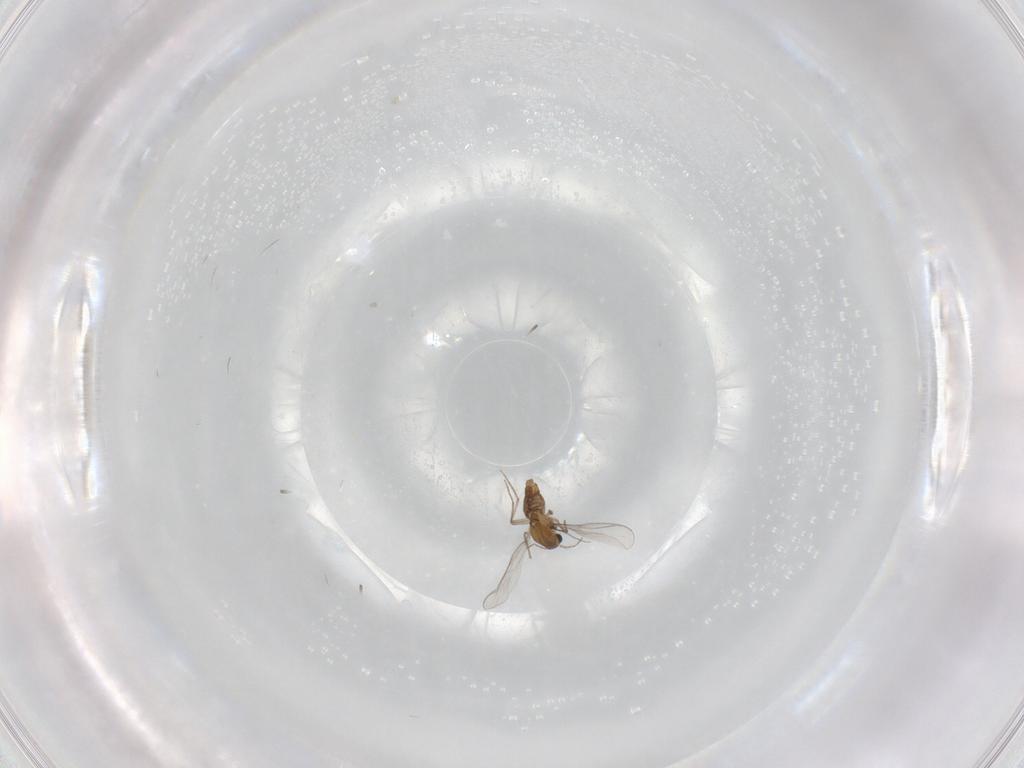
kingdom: Animalia
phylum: Arthropoda
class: Insecta
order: Diptera
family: Chironomidae
